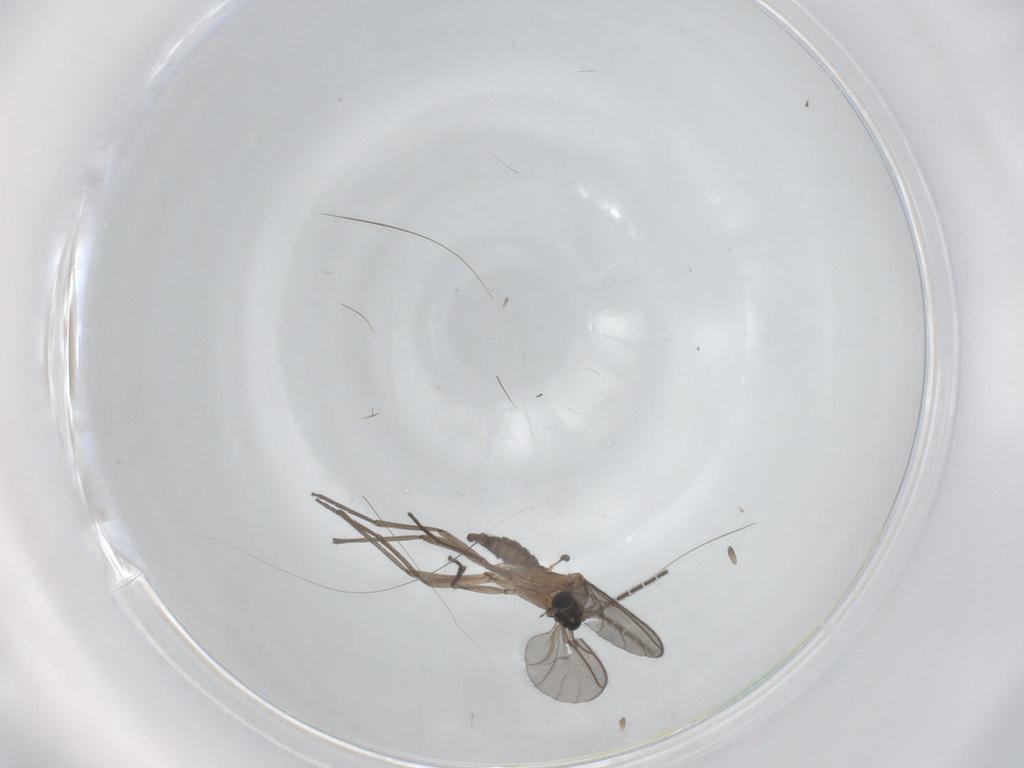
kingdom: Animalia
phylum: Arthropoda
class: Insecta
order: Diptera
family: Sciaridae
